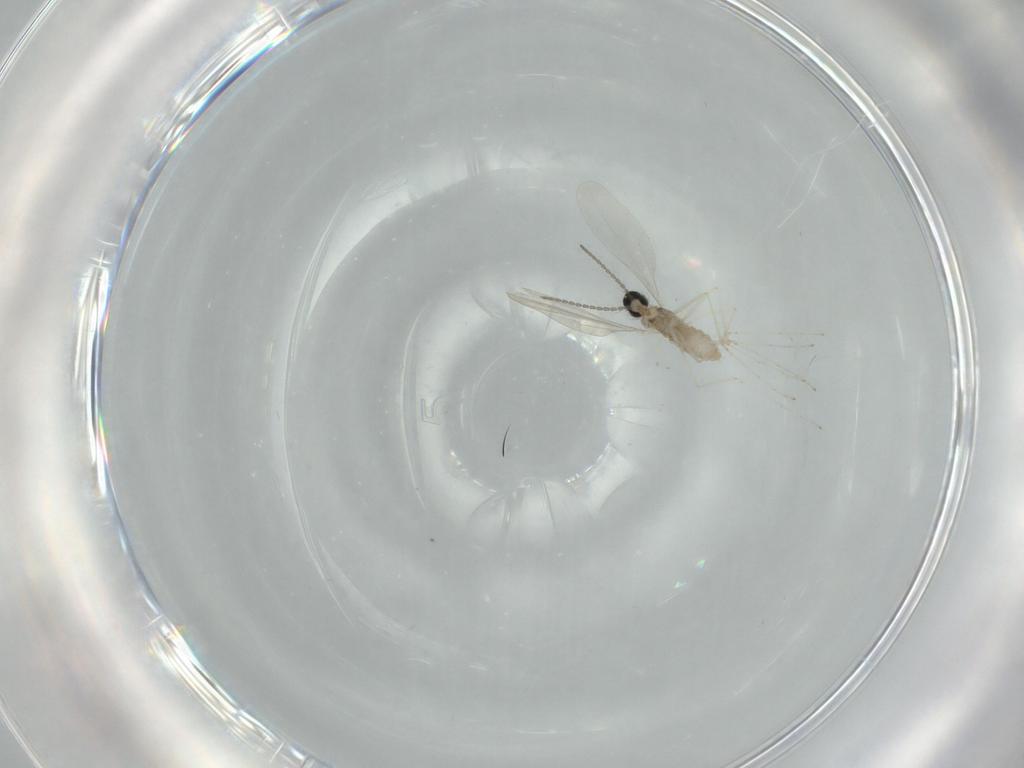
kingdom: Animalia
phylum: Arthropoda
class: Insecta
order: Diptera
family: Cecidomyiidae
